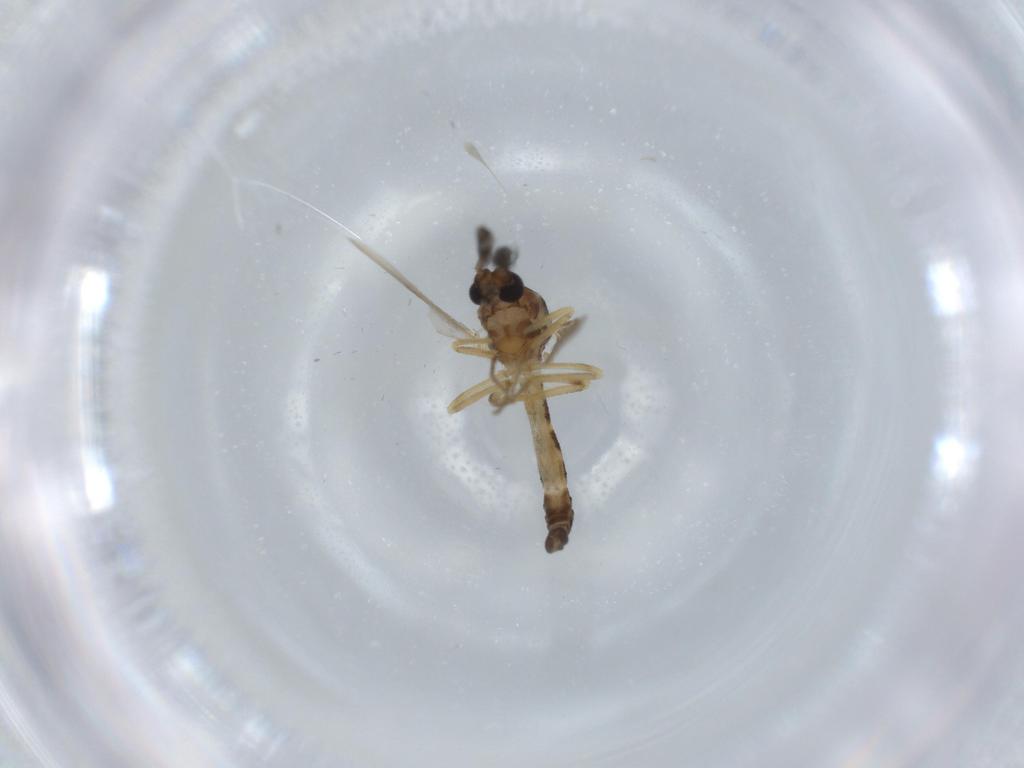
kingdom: Animalia
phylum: Arthropoda
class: Insecta
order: Diptera
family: Ceratopogonidae
